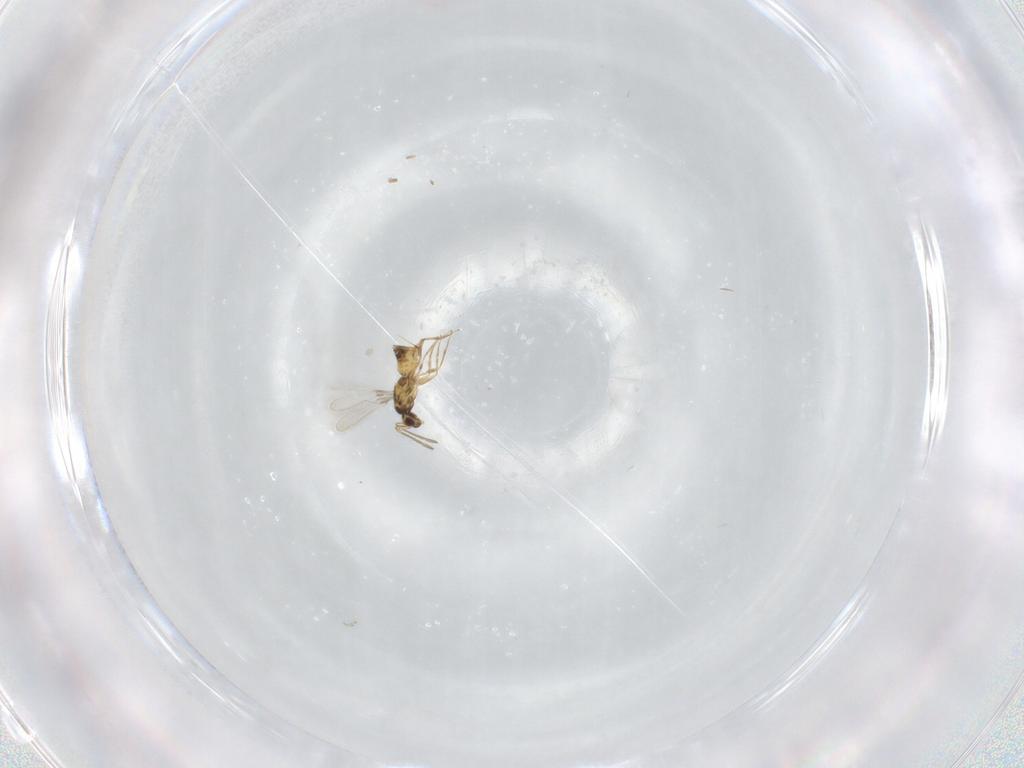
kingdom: Animalia
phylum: Arthropoda
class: Insecta
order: Hymenoptera
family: Scelionidae
